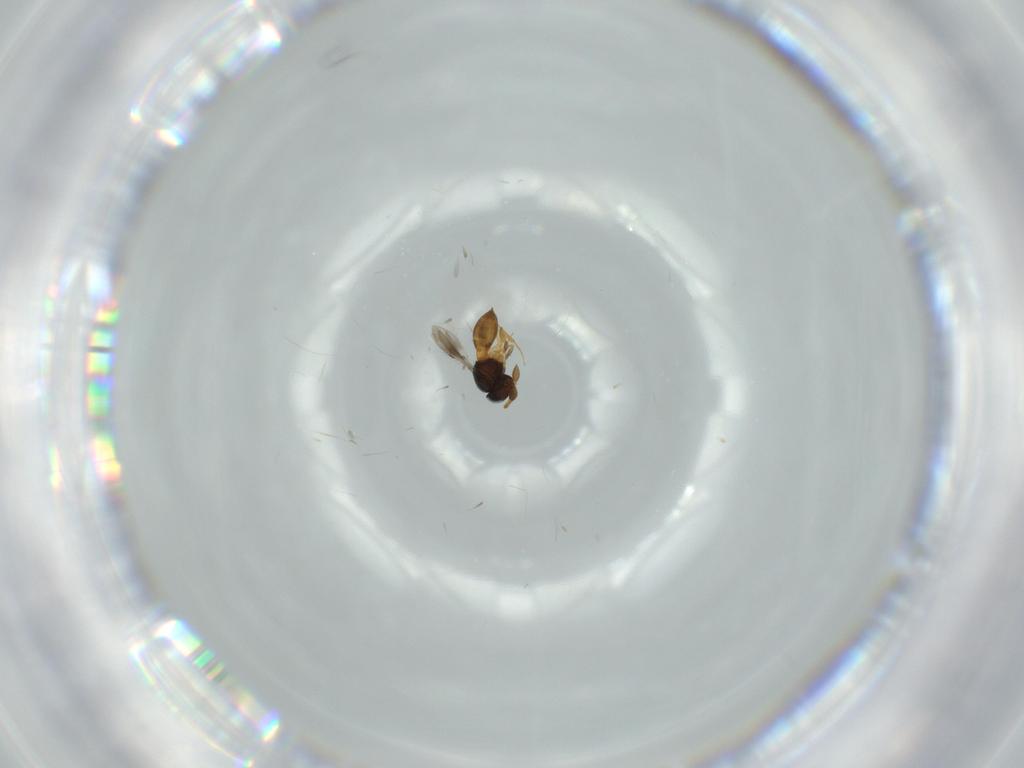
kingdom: Animalia
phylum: Arthropoda
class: Insecta
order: Hymenoptera
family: Scelionidae
